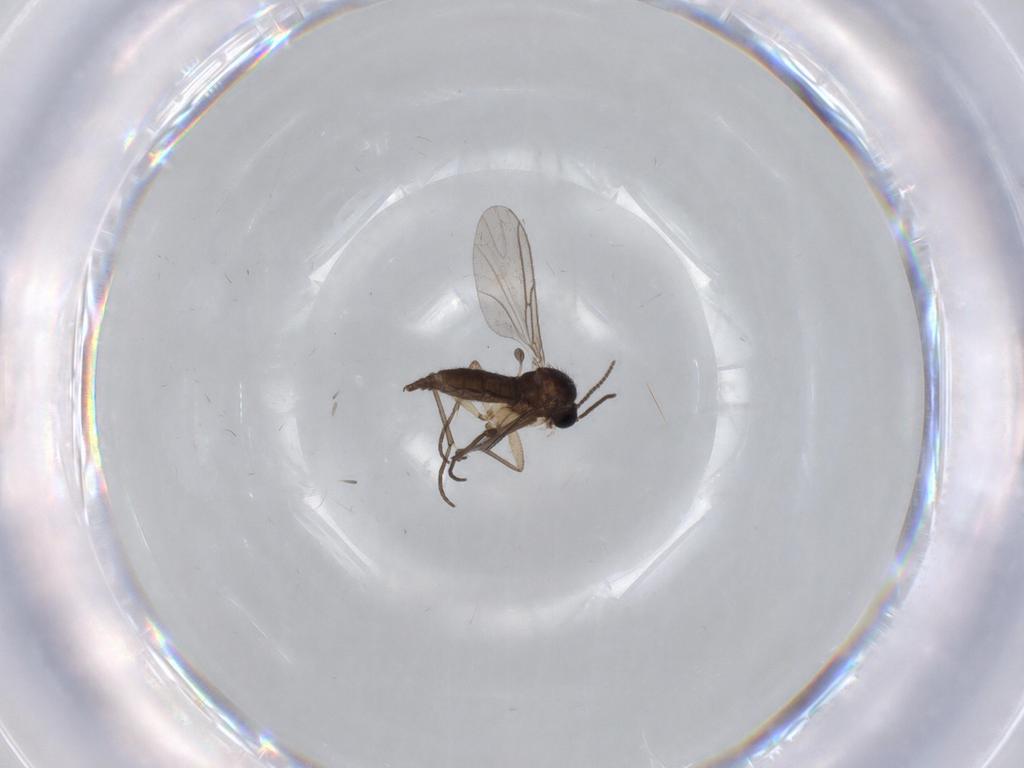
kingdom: Animalia
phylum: Arthropoda
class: Insecta
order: Diptera
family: Sciaridae
